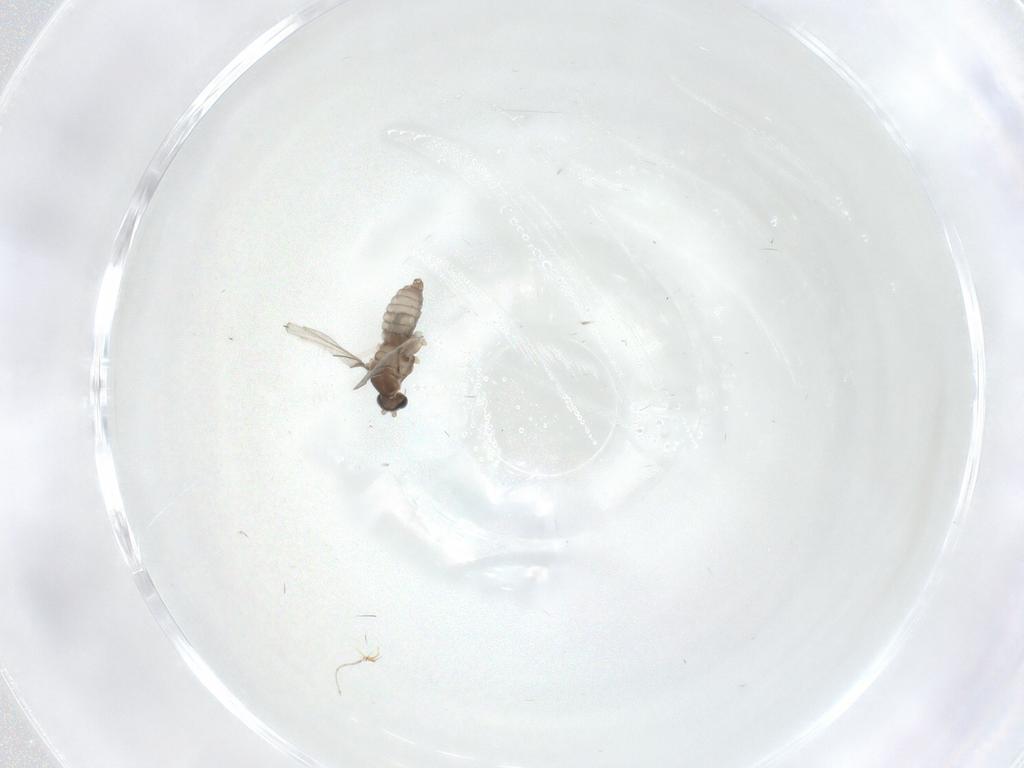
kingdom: Animalia
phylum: Arthropoda
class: Insecta
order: Diptera
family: Cecidomyiidae
